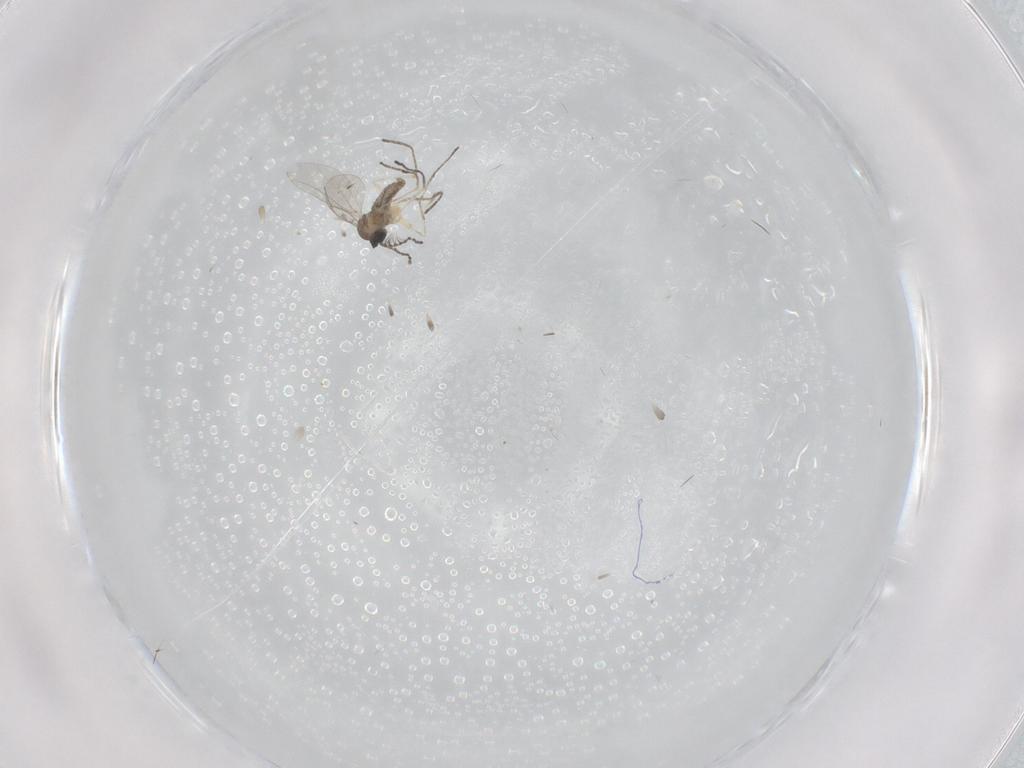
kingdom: Animalia
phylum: Arthropoda
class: Insecta
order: Diptera
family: Cecidomyiidae
